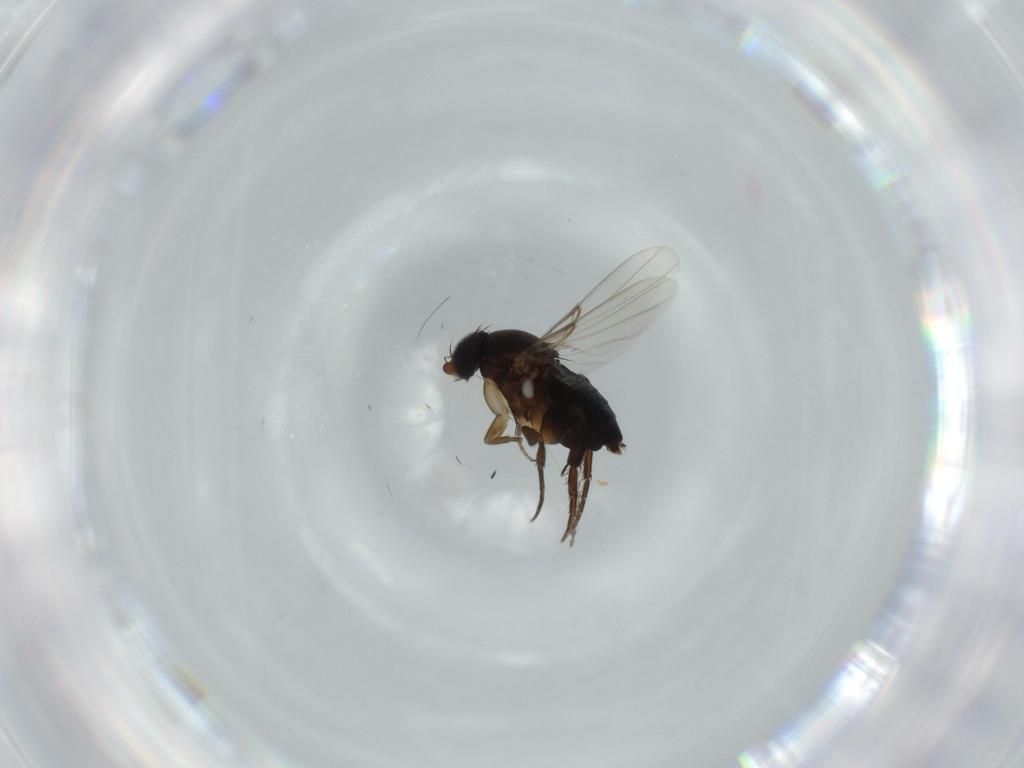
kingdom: Animalia
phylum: Arthropoda
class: Insecta
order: Diptera
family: Phoridae
